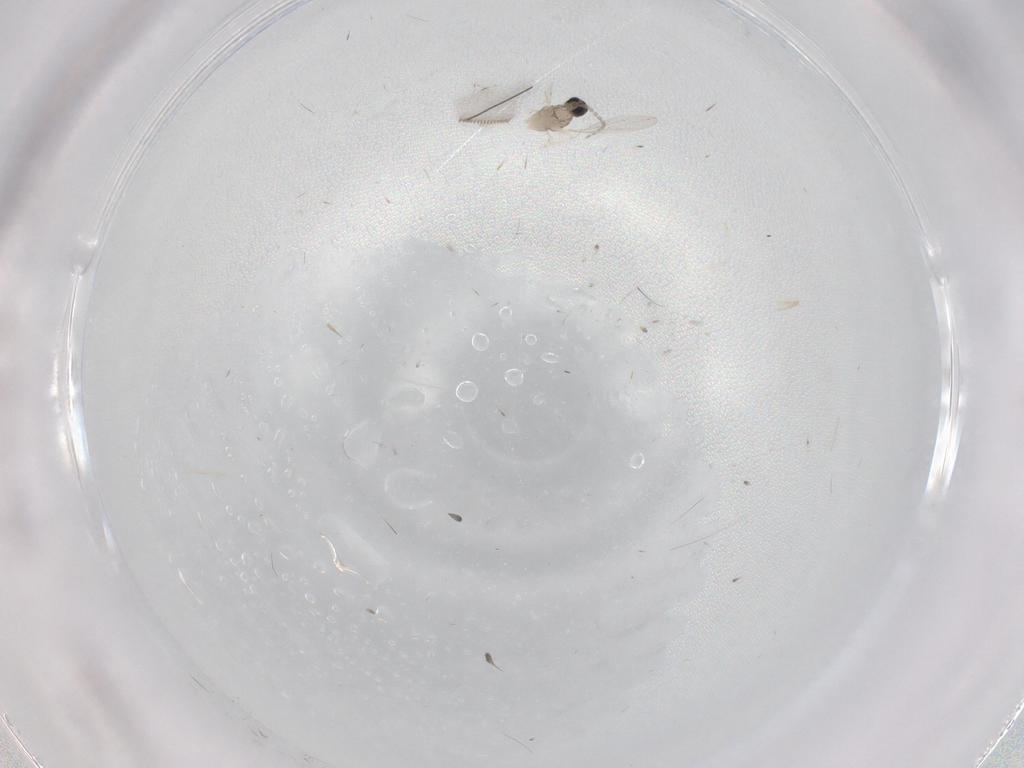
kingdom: Animalia
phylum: Arthropoda
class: Insecta
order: Diptera
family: Cecidomyiidae
